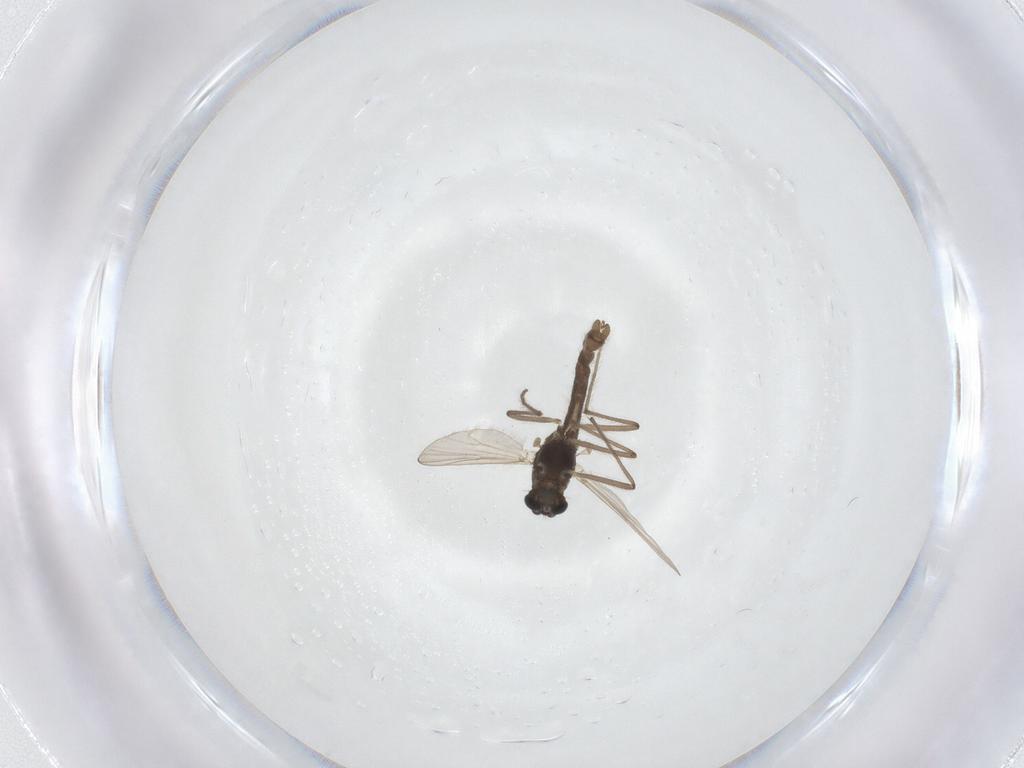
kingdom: Animalia
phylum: Arthropoda
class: Insecta
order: Diptera
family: Chironomidae
